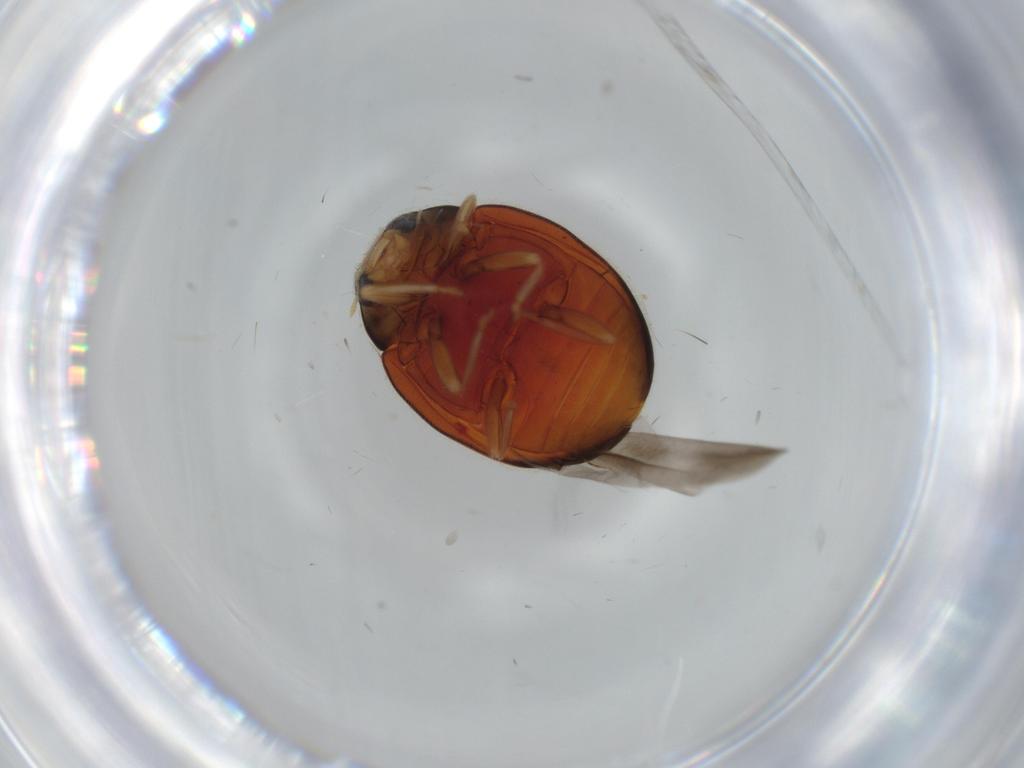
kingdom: Animalia
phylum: Arthropoda
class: Insecta
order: Coleoptera
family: Coccinellidae
